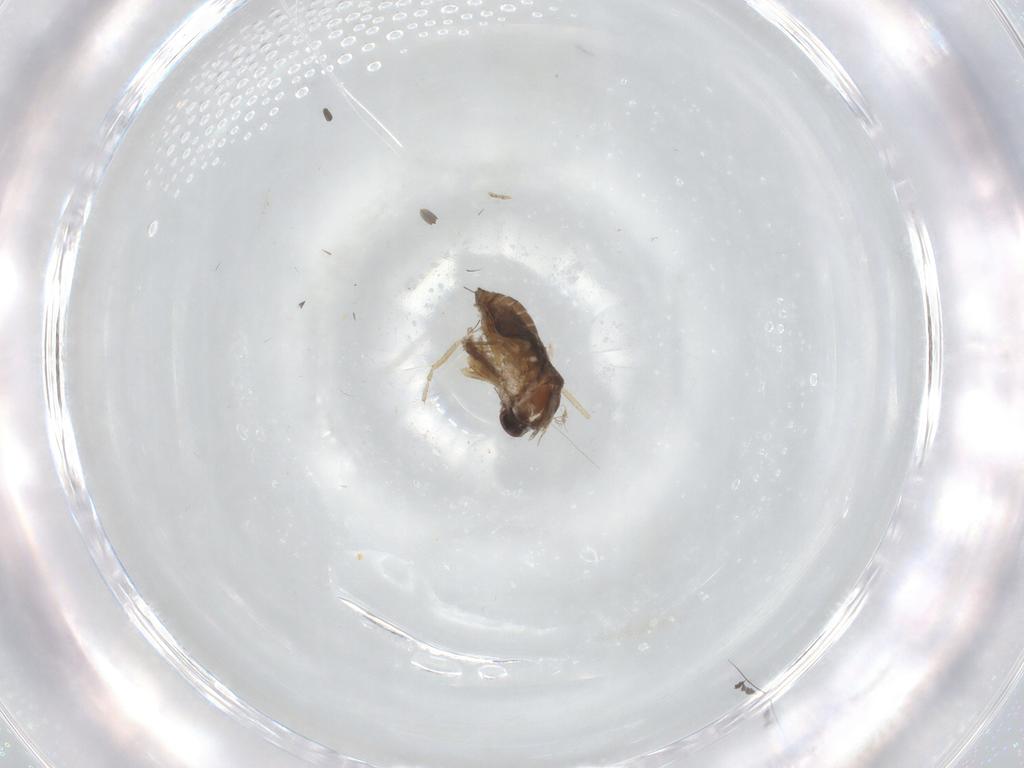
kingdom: Animalia
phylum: Arthropoda
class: Insecta
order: Diptera
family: Ceratopogonidae
